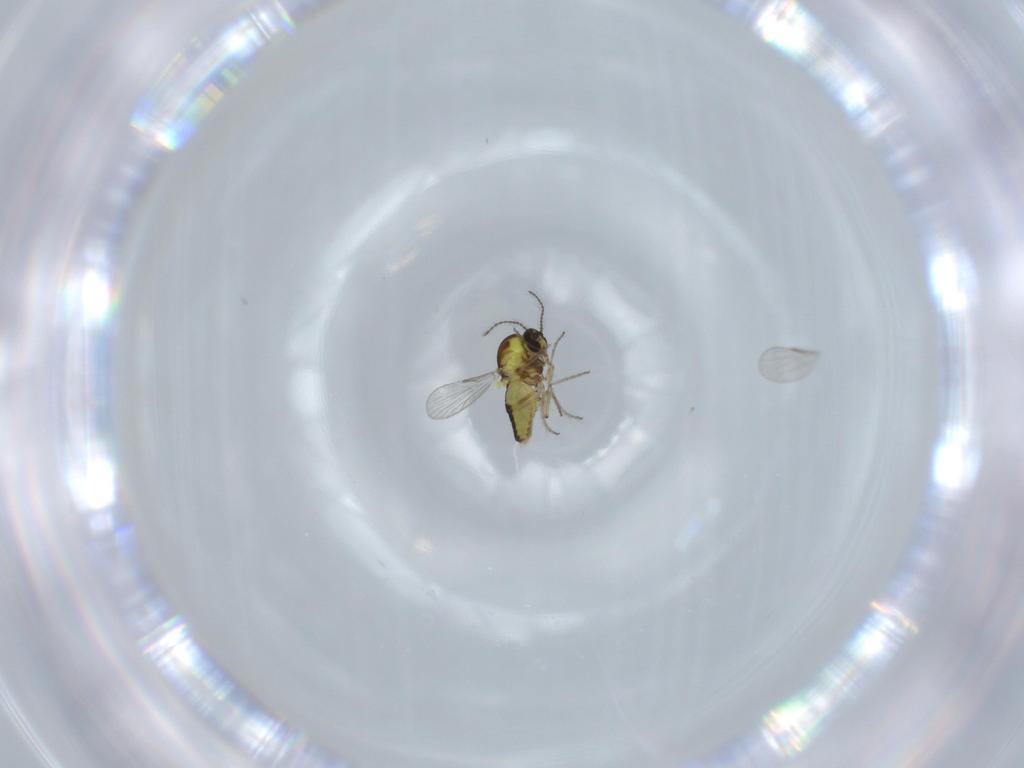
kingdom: Animalia
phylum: Arthropoda
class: Insecta
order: Diptera
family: Ceratopogonidae
